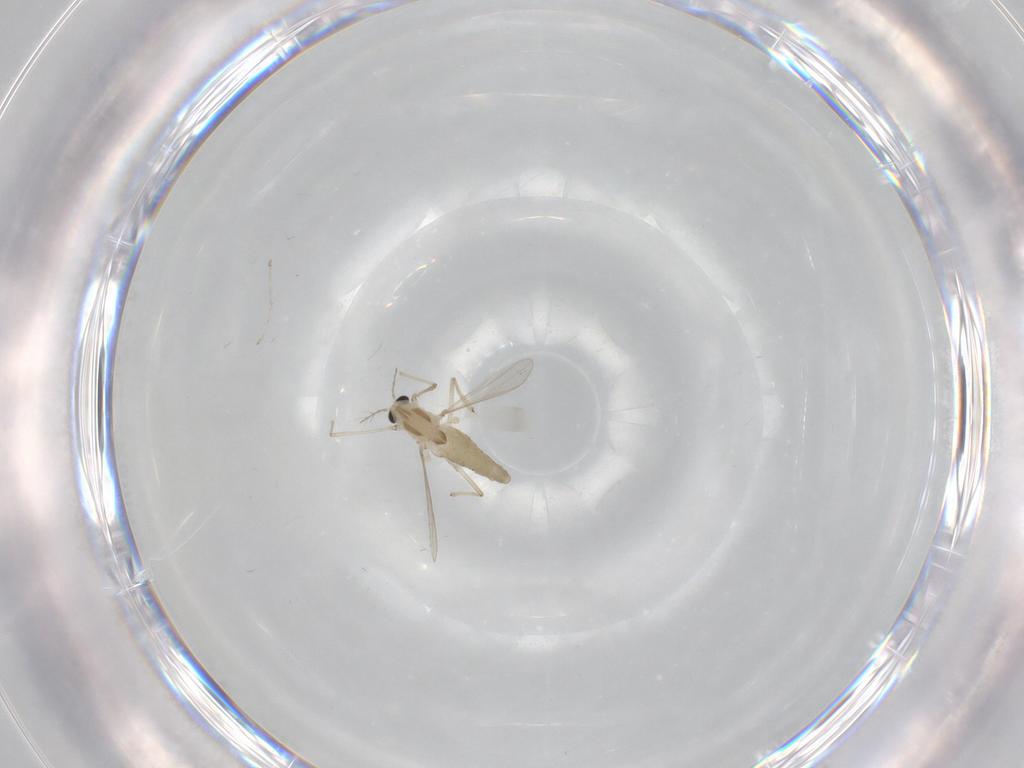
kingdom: Animalia
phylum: Arthropoda
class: Insecta
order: Diptera
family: Chironomidae
